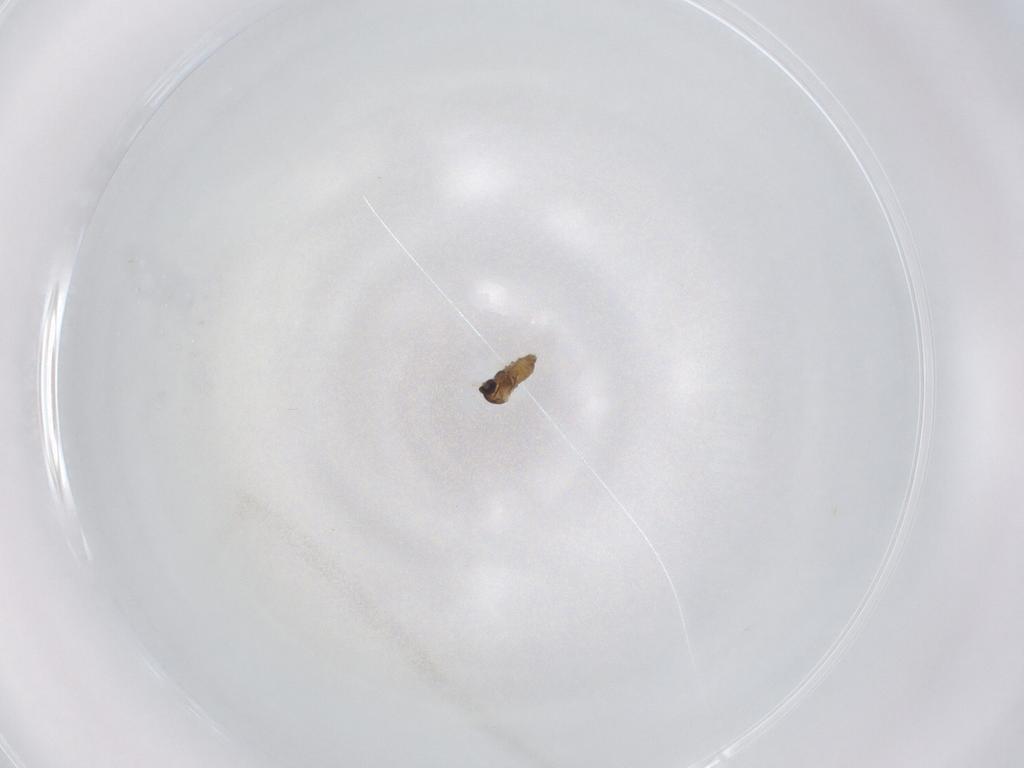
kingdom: Animalia
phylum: Arthropoda
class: Insecta
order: Diptera
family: Cecidomyiidae
